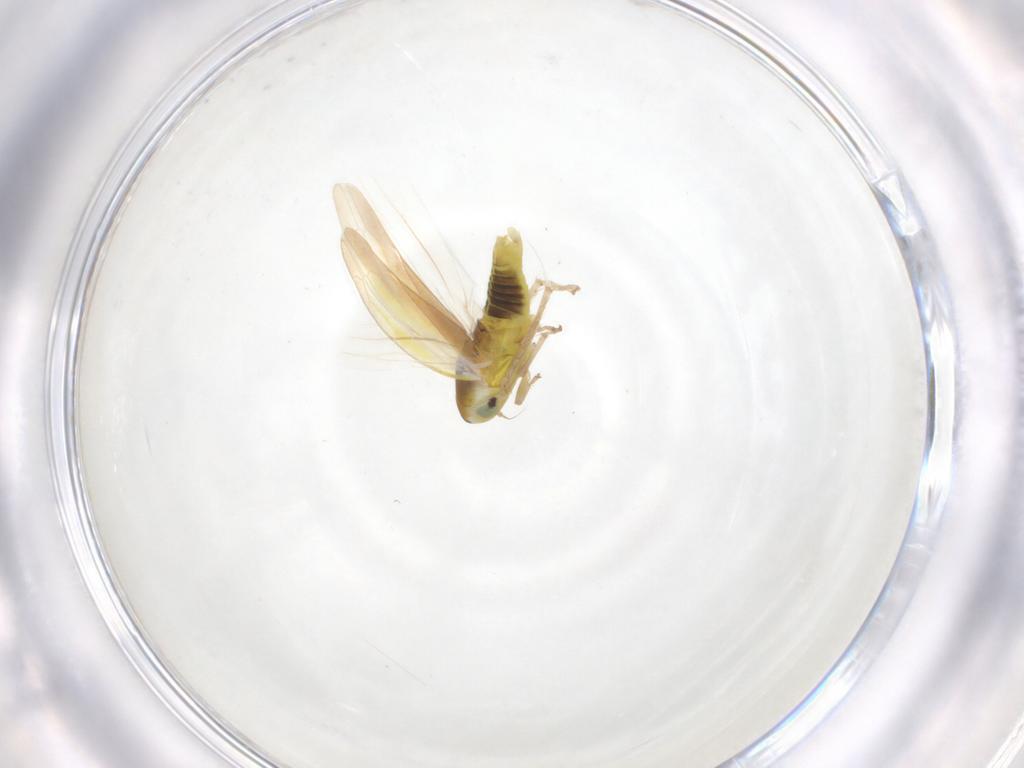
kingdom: Animalia
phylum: Arthropoda
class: Insecta
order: Hemiptera
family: Cicadellidae
